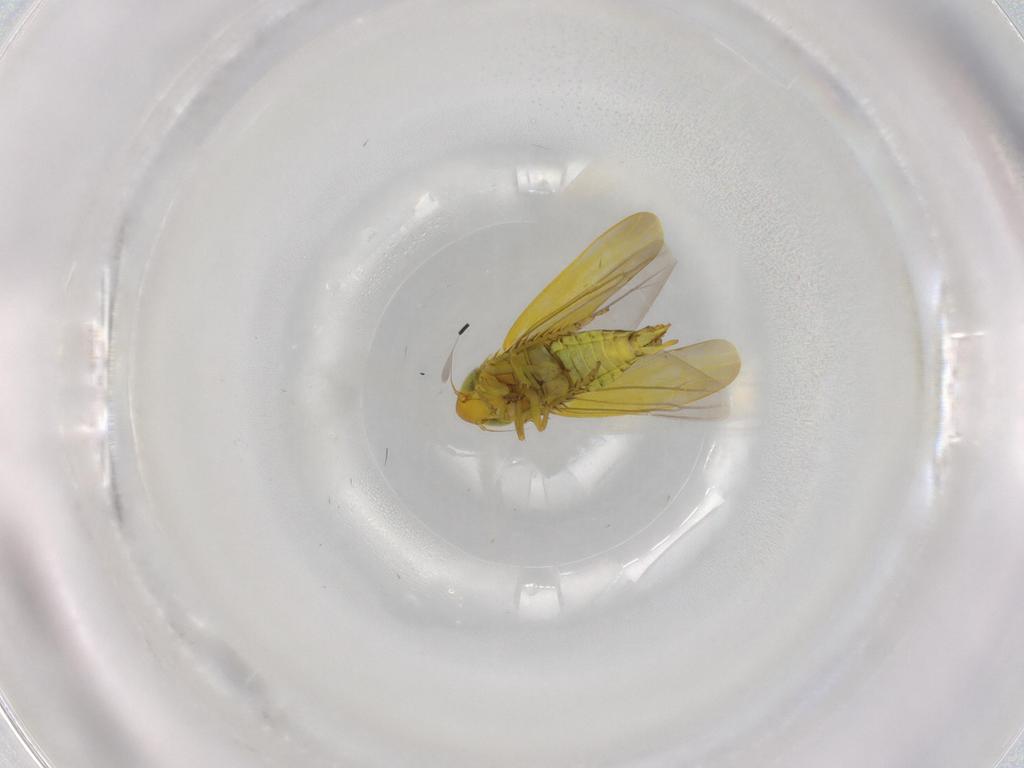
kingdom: Animalia
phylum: Arthropoda
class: Insecta
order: Hemiptera
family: Cicadellidae
